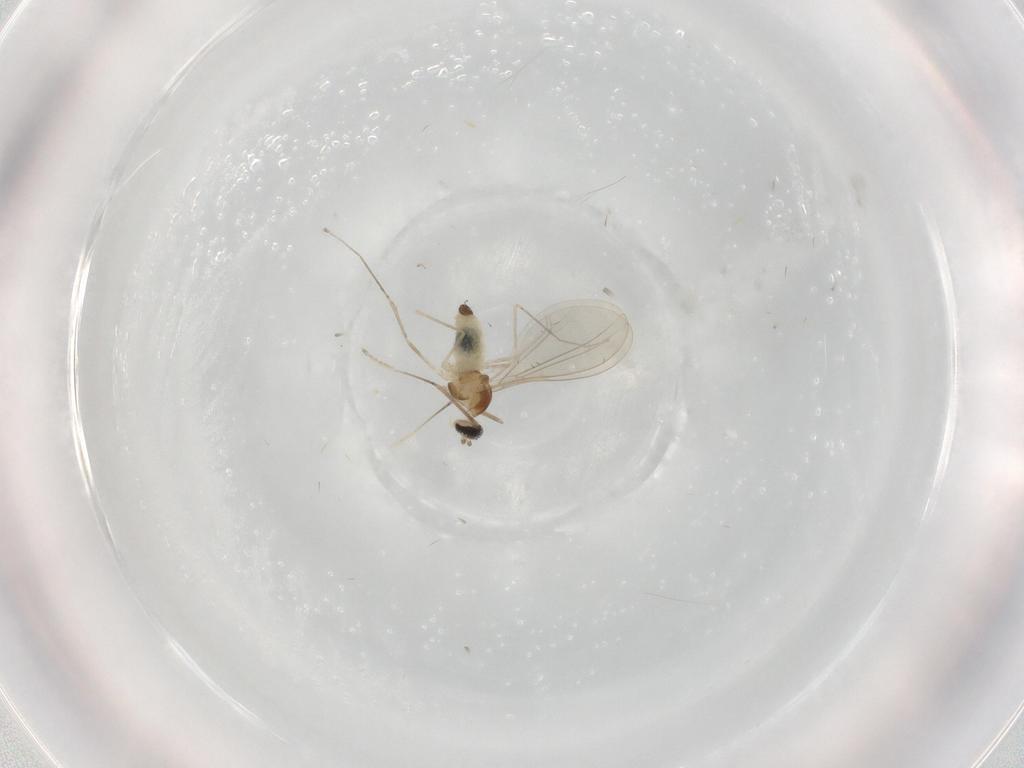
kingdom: Animalia
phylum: Arthropoda
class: Insecta
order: Diptera
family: Cecidomyiidae
